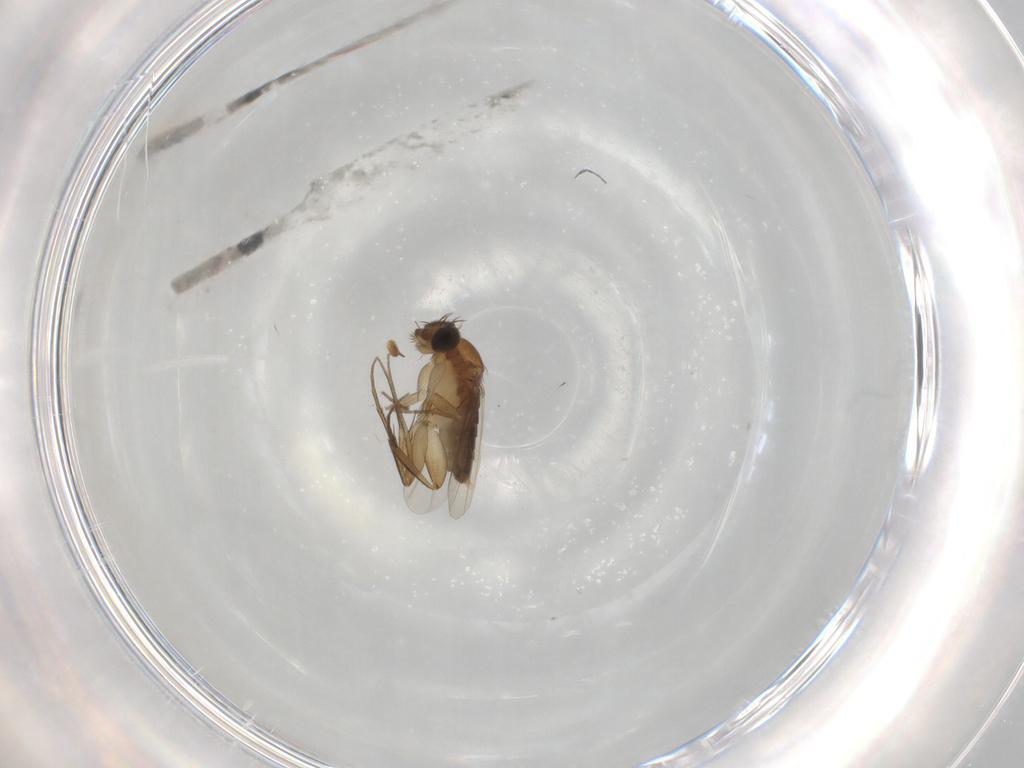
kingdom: Animalia
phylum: Arthropoda
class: Insecta
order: Diptera
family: Phoridae
